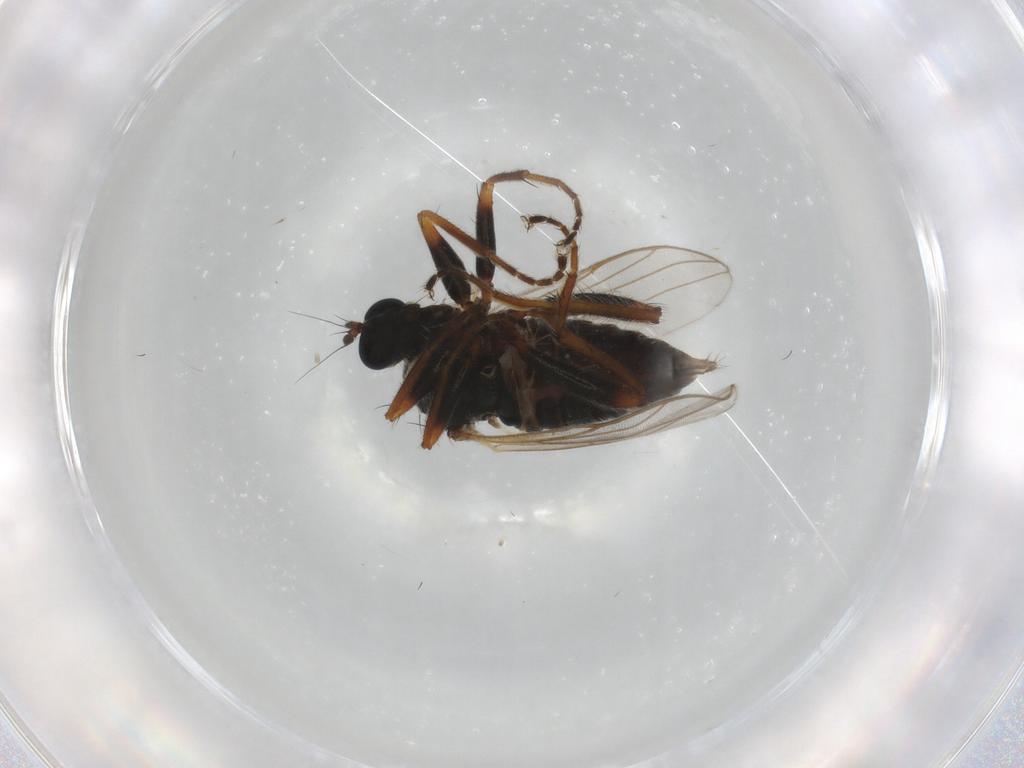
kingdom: Animalia
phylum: Arthropoda
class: Insecta
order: Diptera
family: Hybotidae
